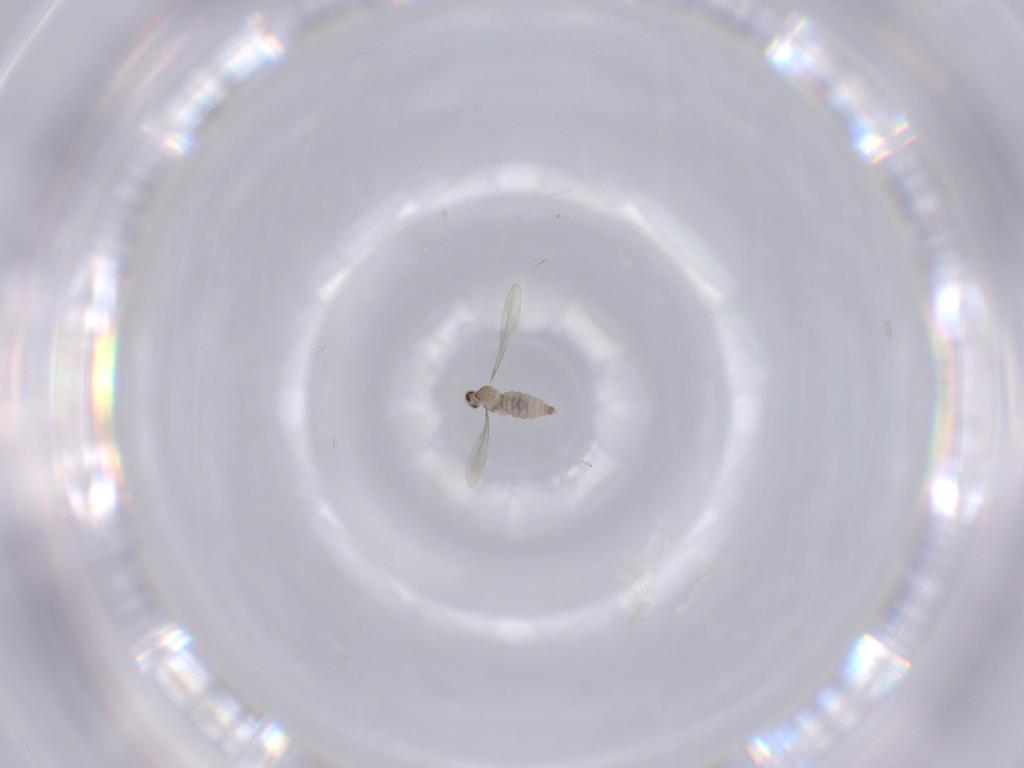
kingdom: Animalia
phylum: Arthropoda
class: Insecta
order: Diptera
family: Cecidomyiidae
